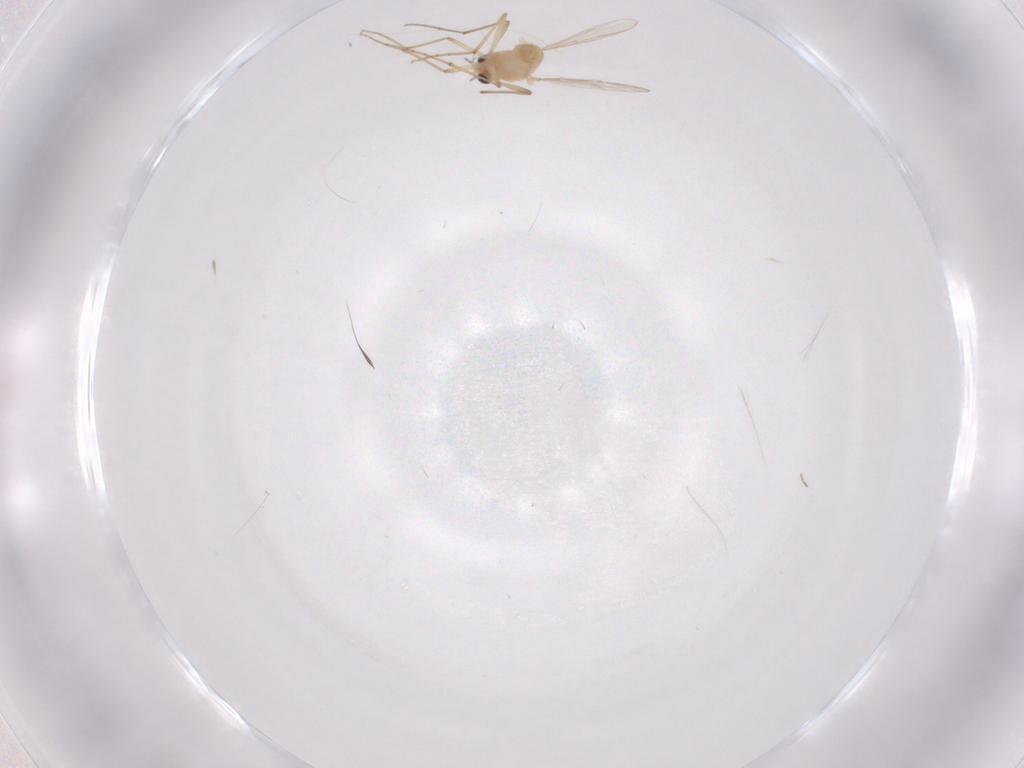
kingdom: Animalia
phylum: Arthropoda
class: Insecta
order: Diptera
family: Chironomidae
